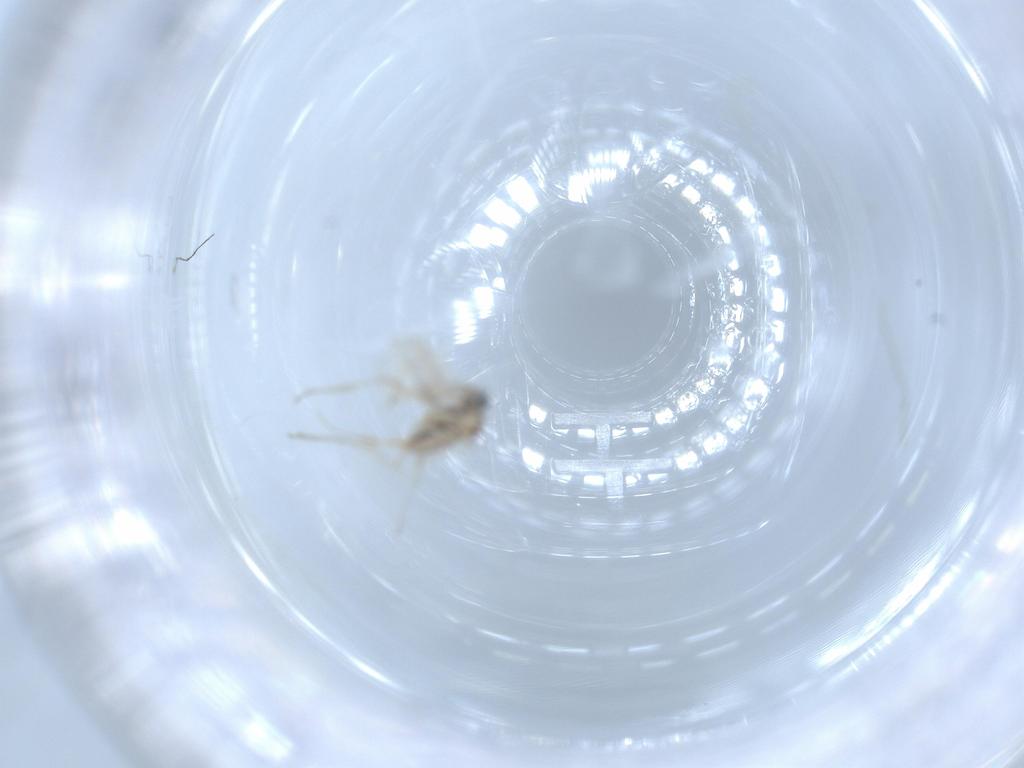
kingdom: Animalia
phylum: Arthropoda
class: Insecta
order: Diptera
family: Cecidomyiidae
